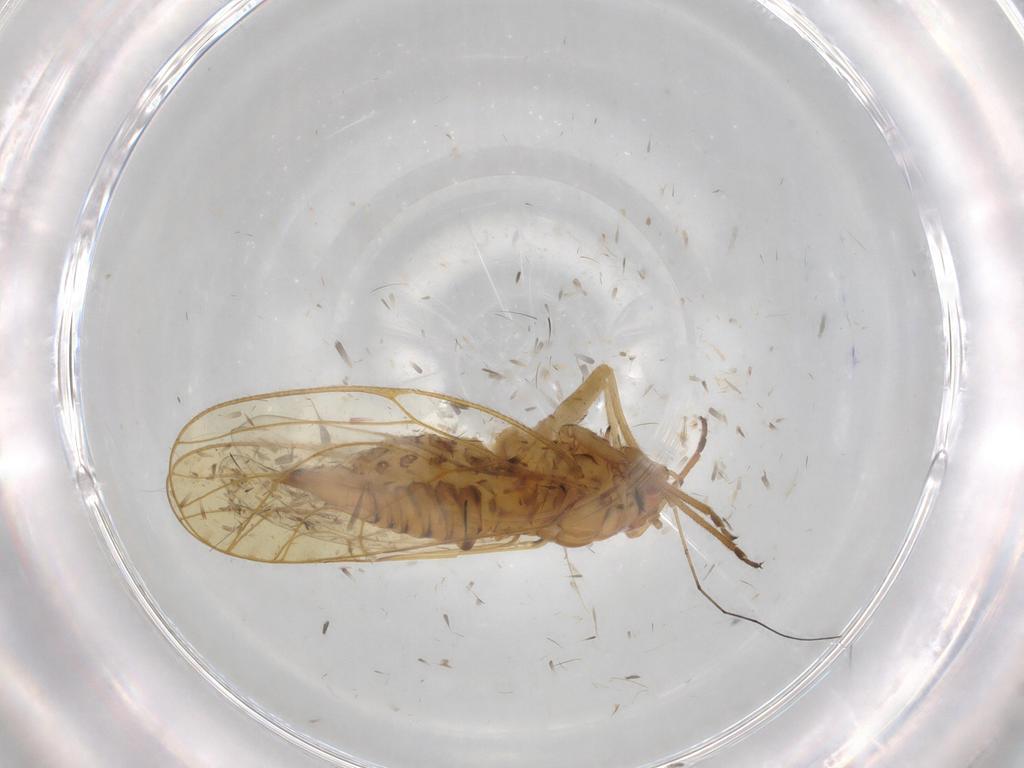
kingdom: Animalia
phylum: Arthropoda
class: Insecta
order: Hemiptera
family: Psyllidae
